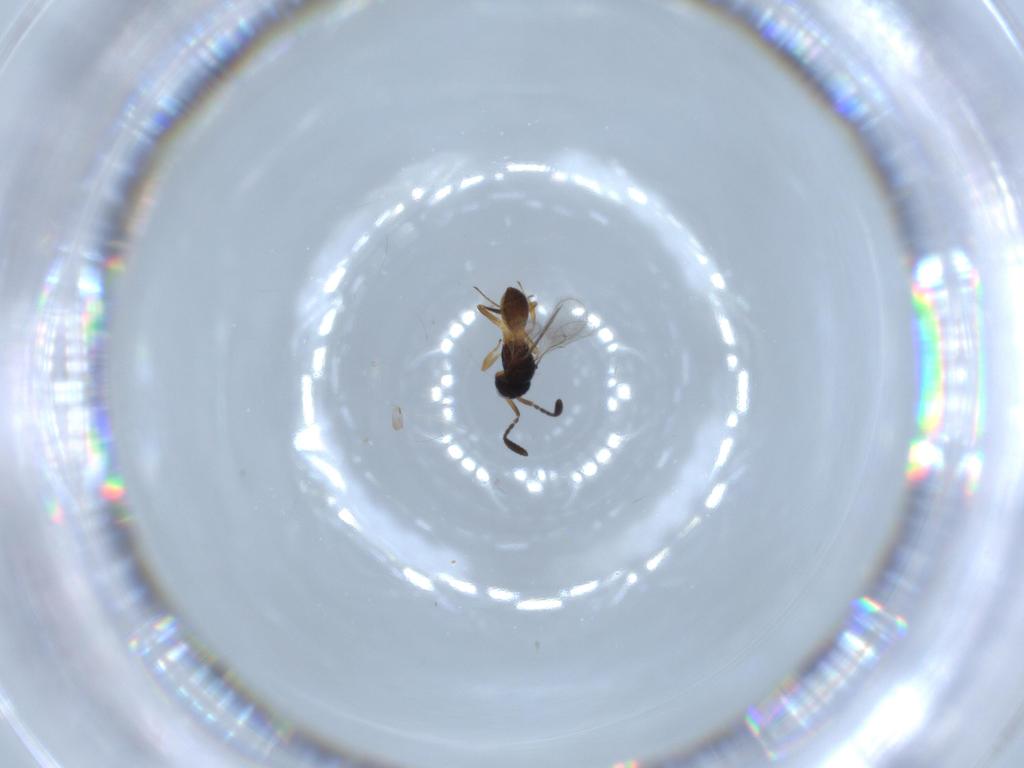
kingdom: Animalia
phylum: Arthropoda
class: Insecta
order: Hymenoptera
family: Scelionidae
